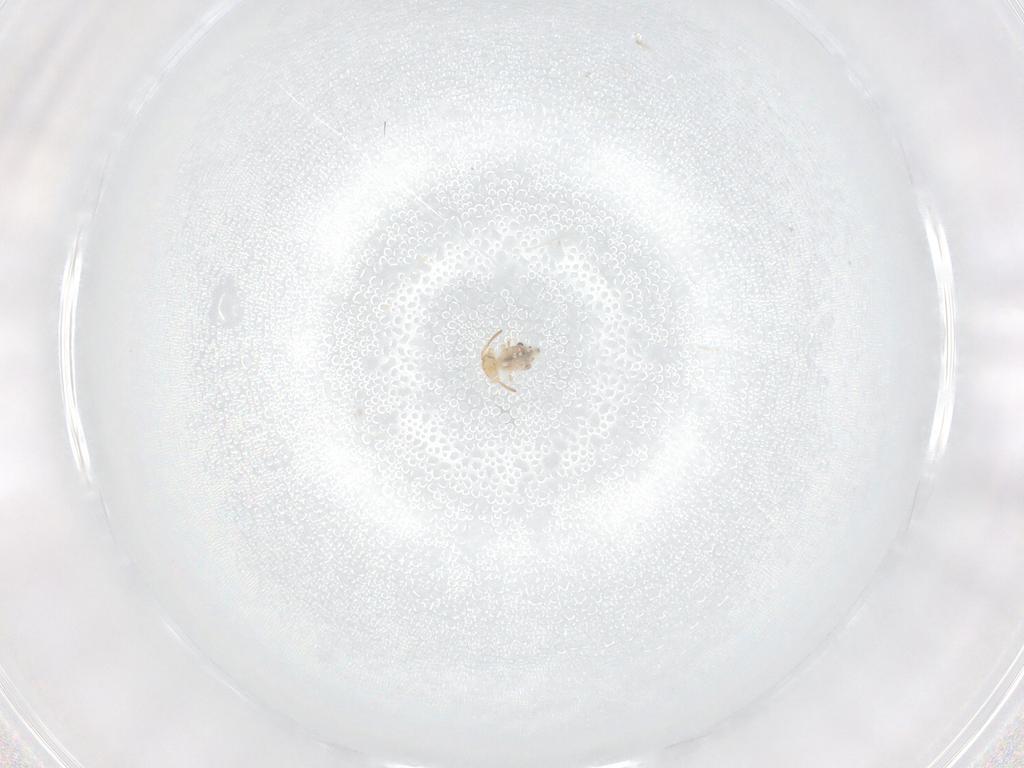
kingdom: Animalia
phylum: Arthropoda
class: Collembola
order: Symphypleona
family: Bourletiellidae
